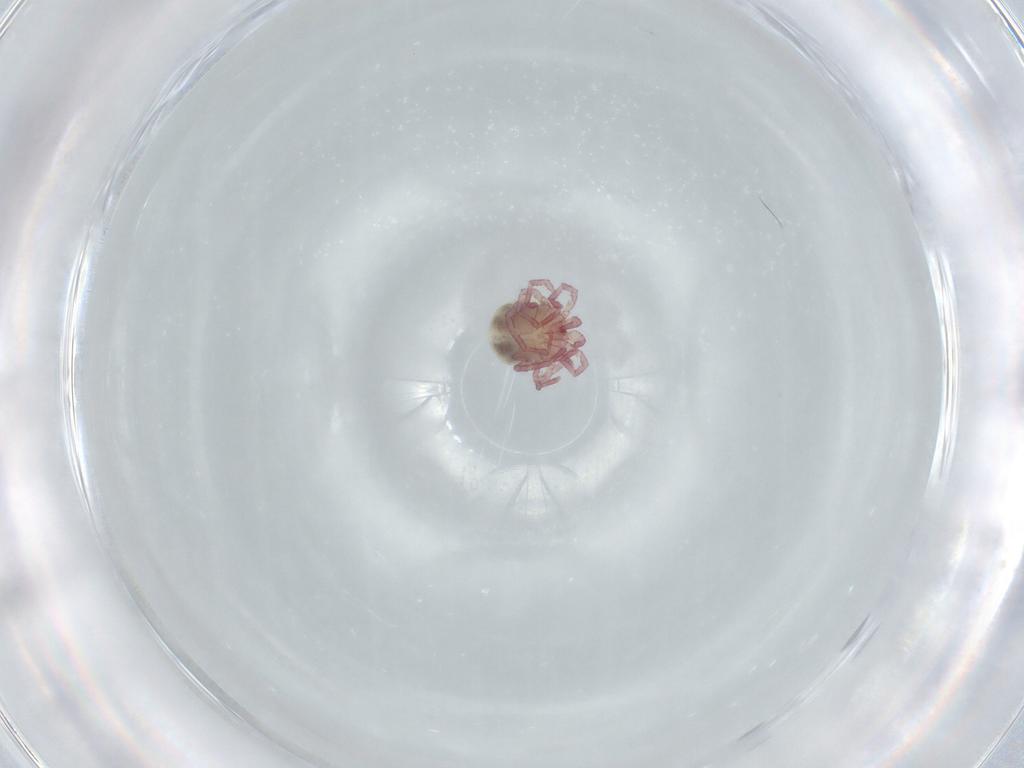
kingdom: Animalia
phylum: Arthropoda
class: Arachnida
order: Trombidiformes
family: Pionidae
